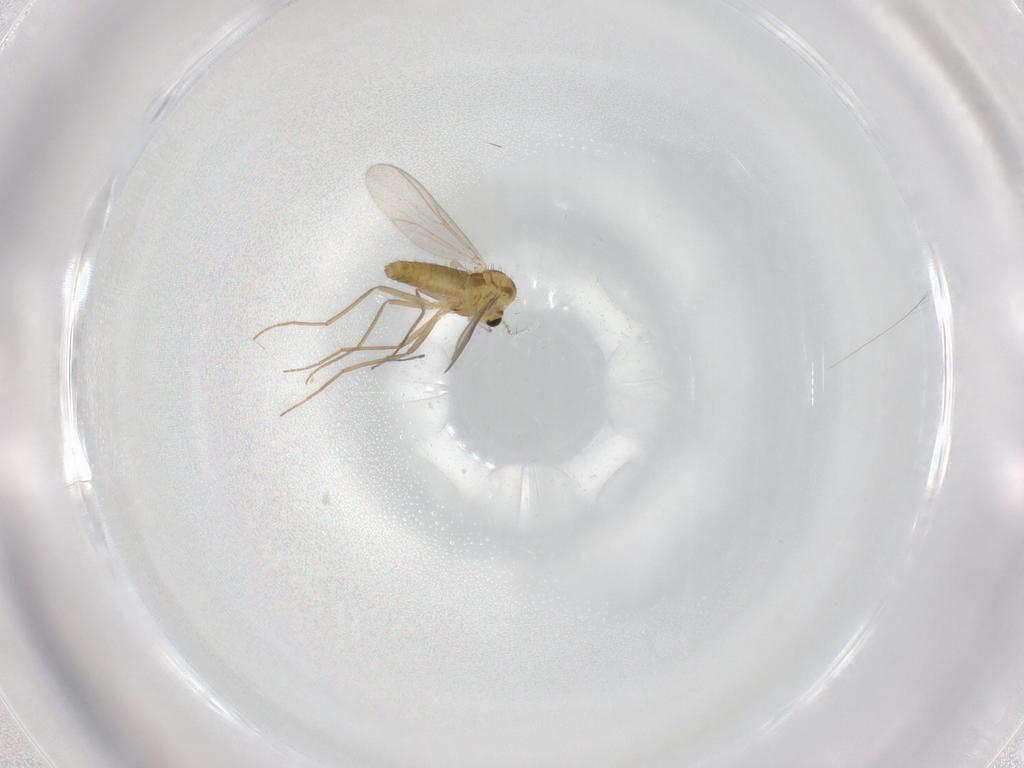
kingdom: Animalia
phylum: Arthropoda
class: Insecta
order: Diptera
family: Chironomidae
